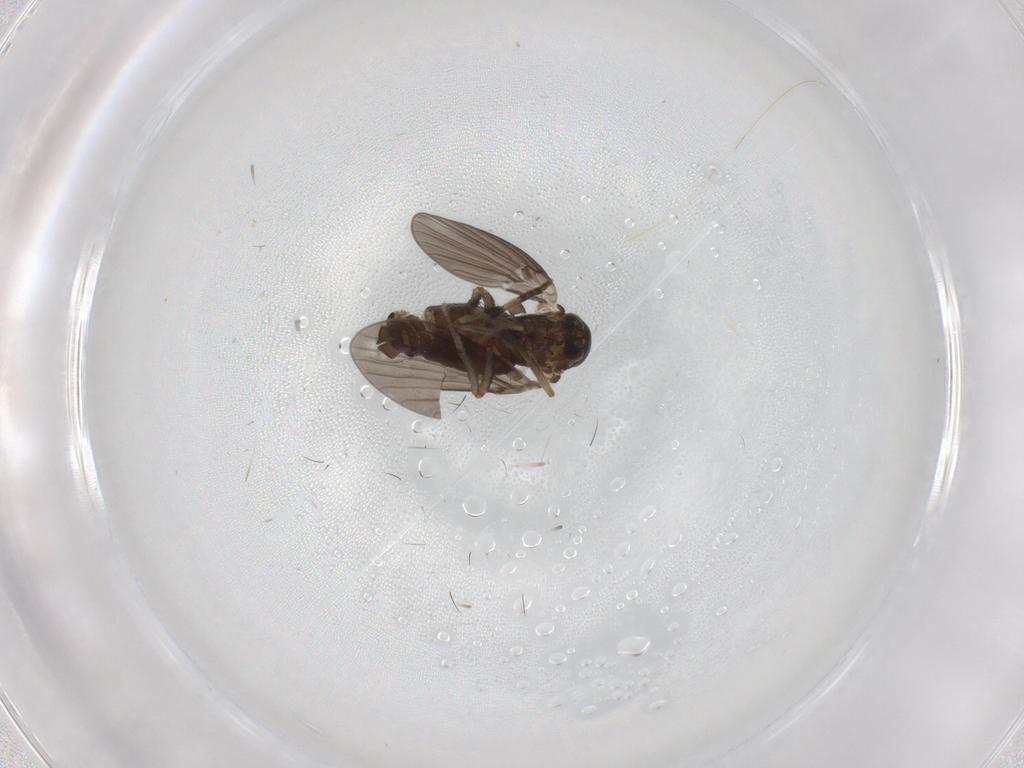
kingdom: Animalia
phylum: Arthropoda
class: Insecta
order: Diptera
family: Psychodidae
